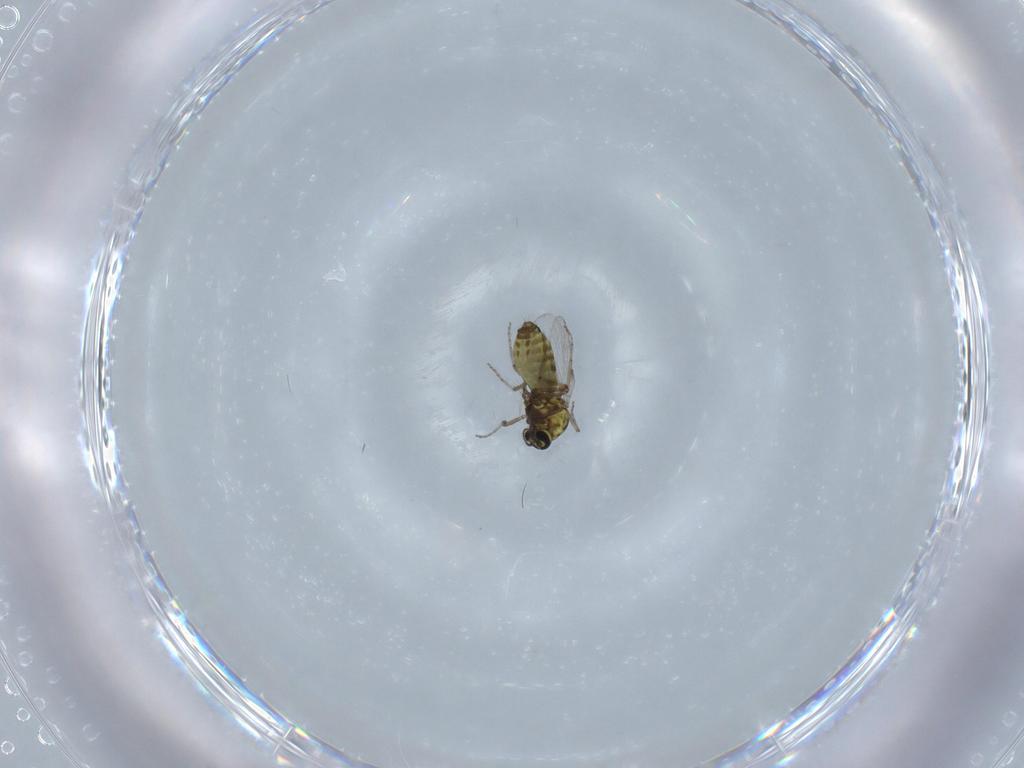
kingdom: Animalia
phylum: Arthropoda
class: Insecta
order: Diptera
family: Ceratopogonidae
